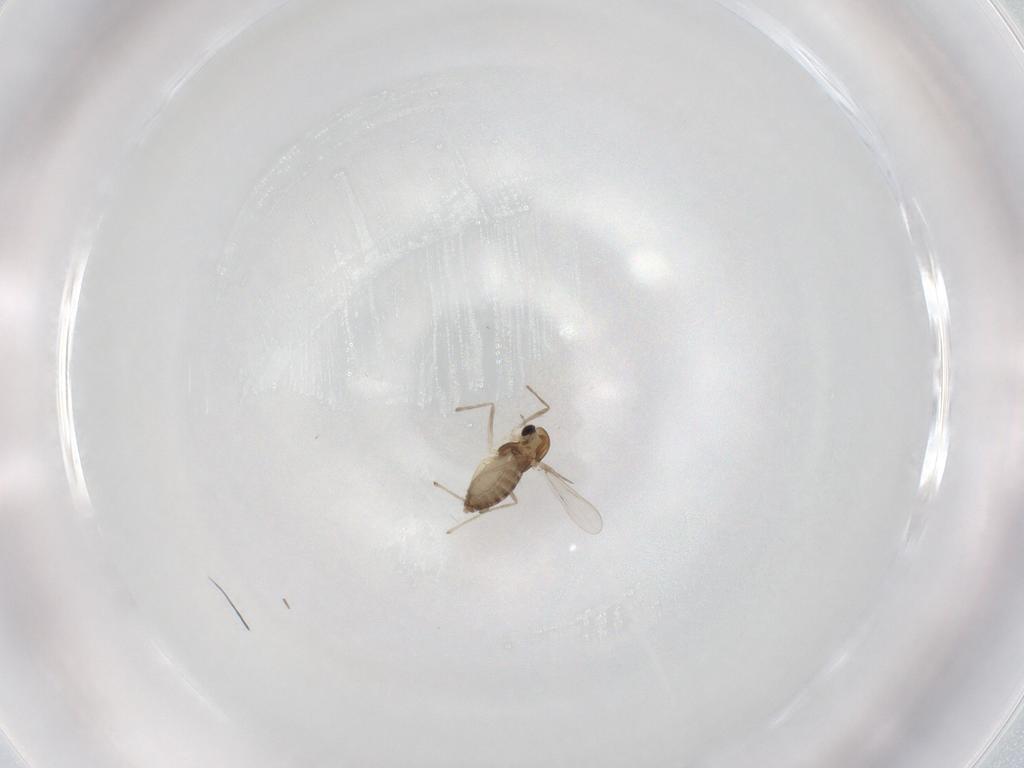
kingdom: Animalia
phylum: Arthropoda
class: Insecta
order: Diptera
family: Chironomidae
